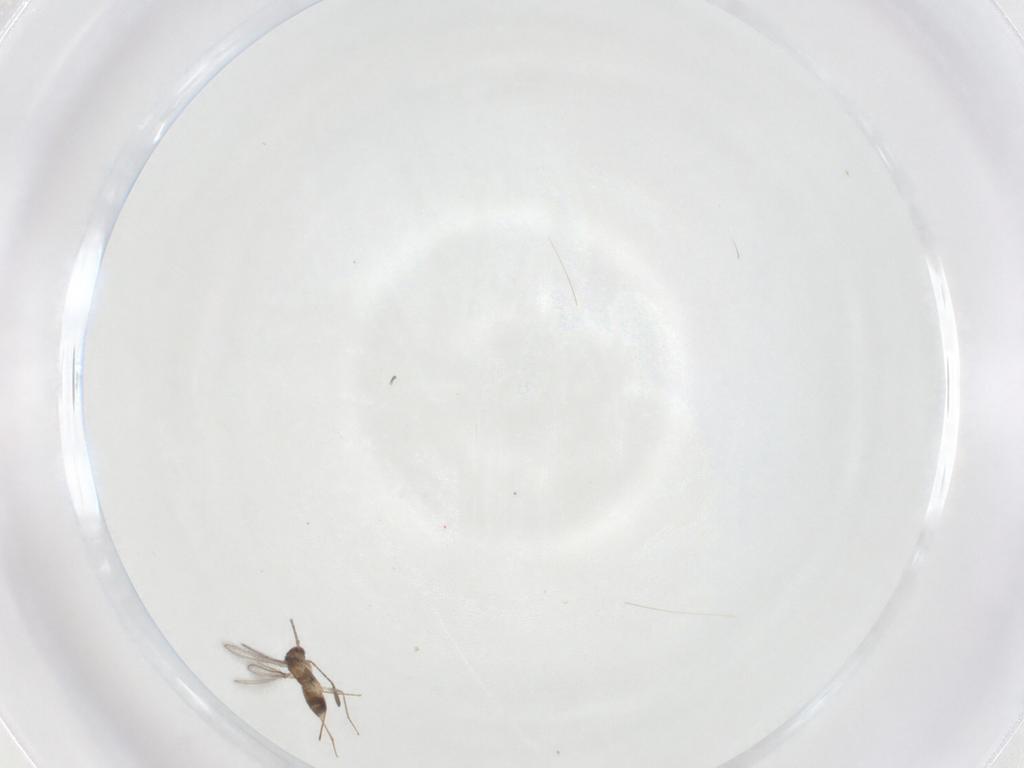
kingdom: Animalia
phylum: Arthropoda
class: Insecta
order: Hymenoptera
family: Mymaridae
